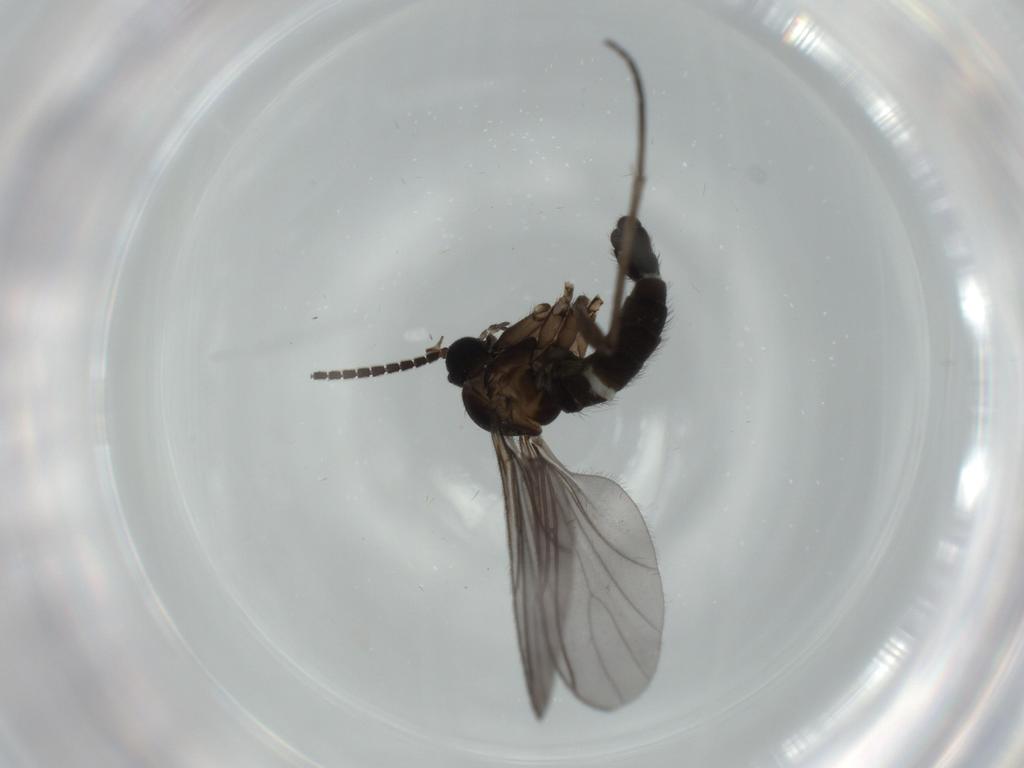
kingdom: Animalia
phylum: Arthropoda
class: Insecta
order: Diptera
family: Sciaridae
